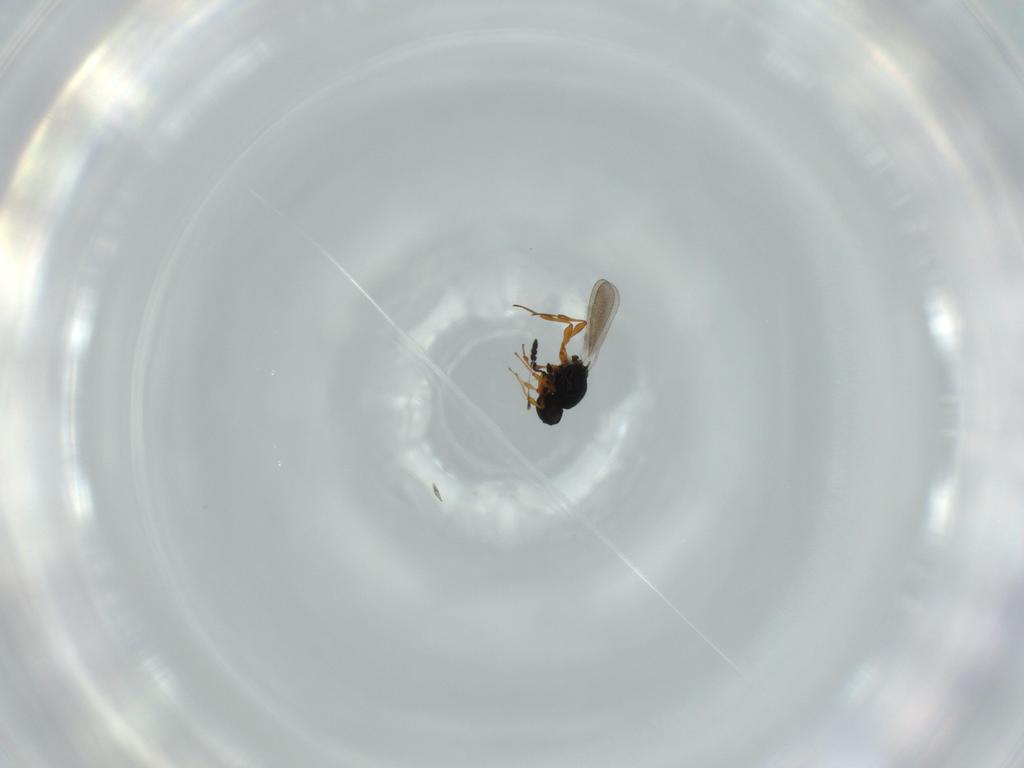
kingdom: Animalia
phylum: Arthropoda
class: Insecta
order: Hymenoptera
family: Platygastridae
